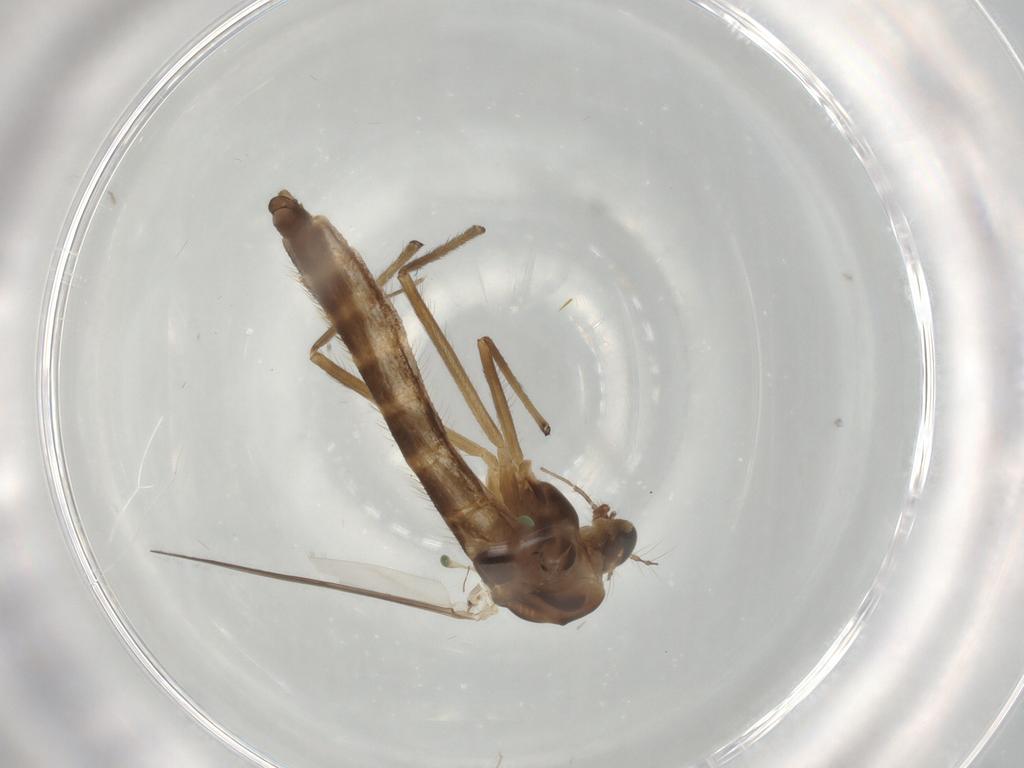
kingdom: Animalia
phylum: Arthropoda
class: Insecta
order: Diptera
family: Chironomidae
